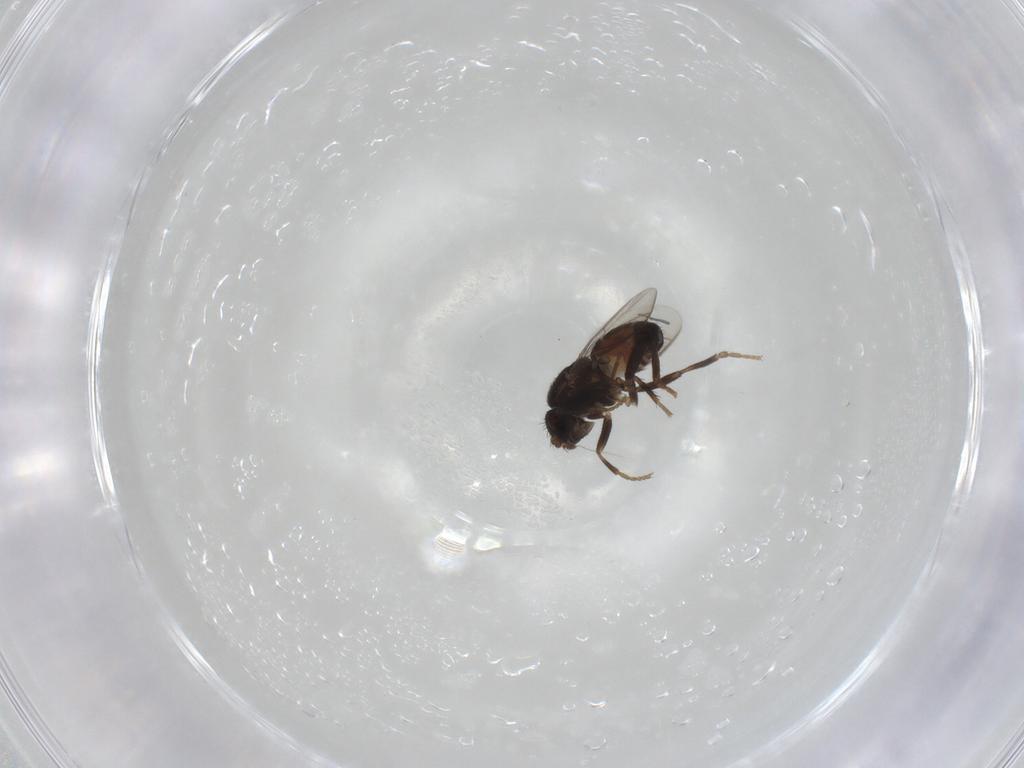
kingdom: Animalia
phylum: Arthropoda
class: Insecta
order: Diptera
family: Sphaeroceridae
